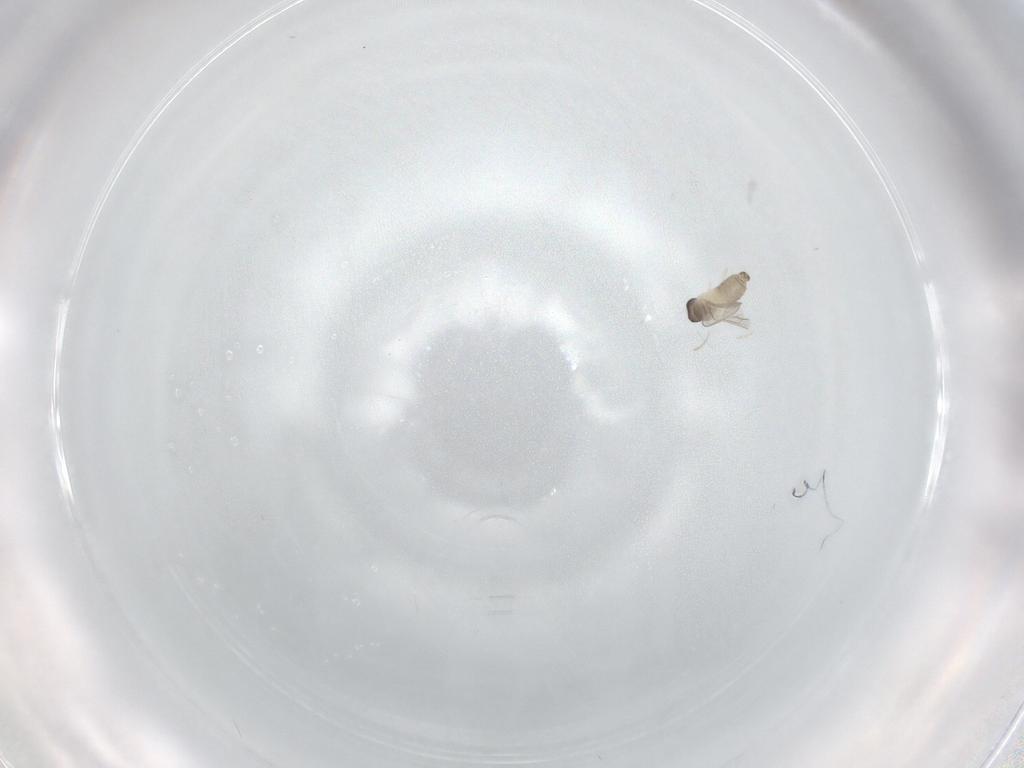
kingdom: Animalia
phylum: Arthropoda
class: Insecta
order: Diptera
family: Cecidomyiidae
